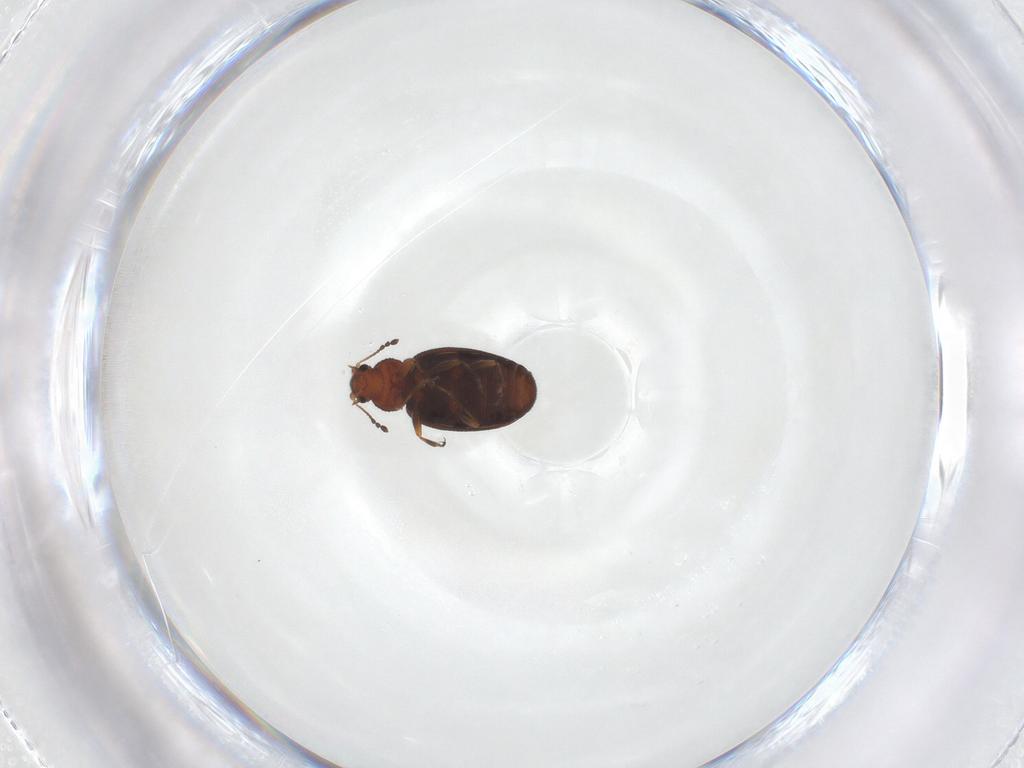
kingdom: Animalia
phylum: Arthropoda
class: Insecta
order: Coleoptera
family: Latridiidae
